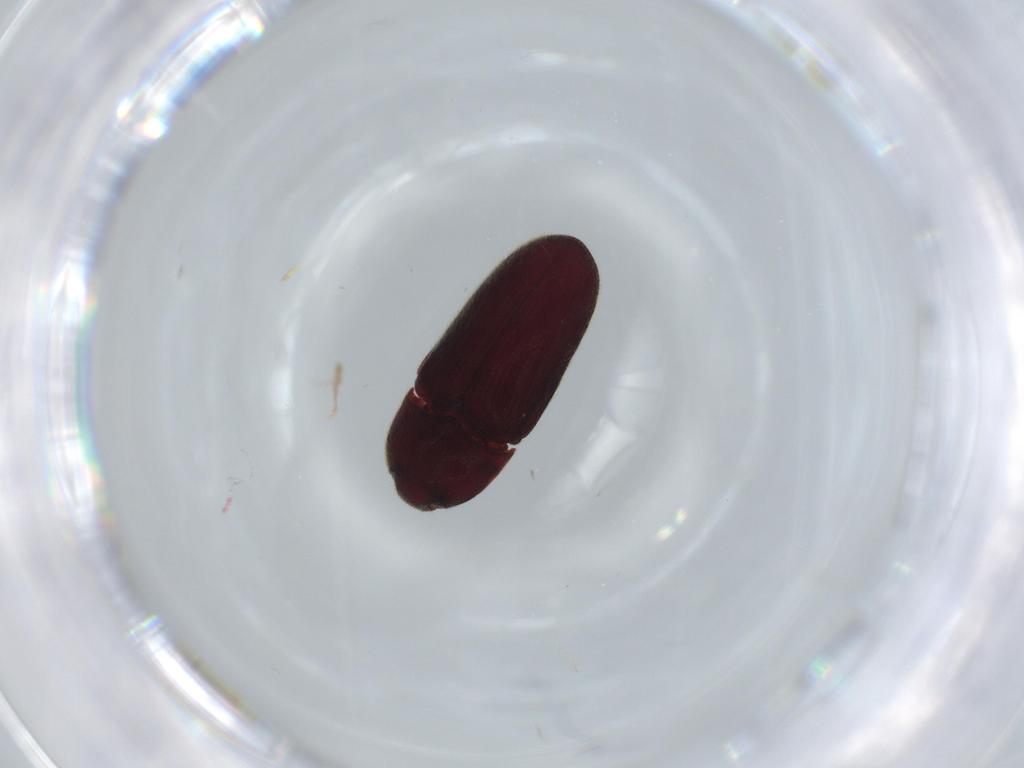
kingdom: Animalia
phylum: Arthropoda
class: Insecta
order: Coleoptera
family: Throscidae
